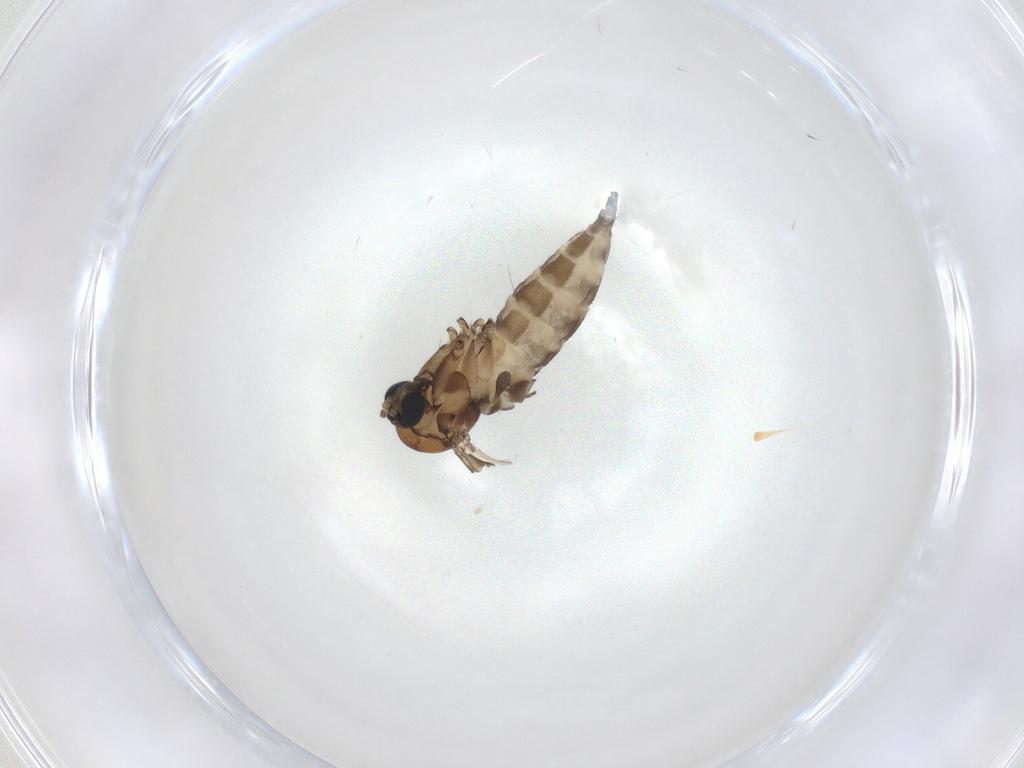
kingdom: Animalia
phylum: Arthropoda
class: Insecta
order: Diptera
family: Sciaridae
